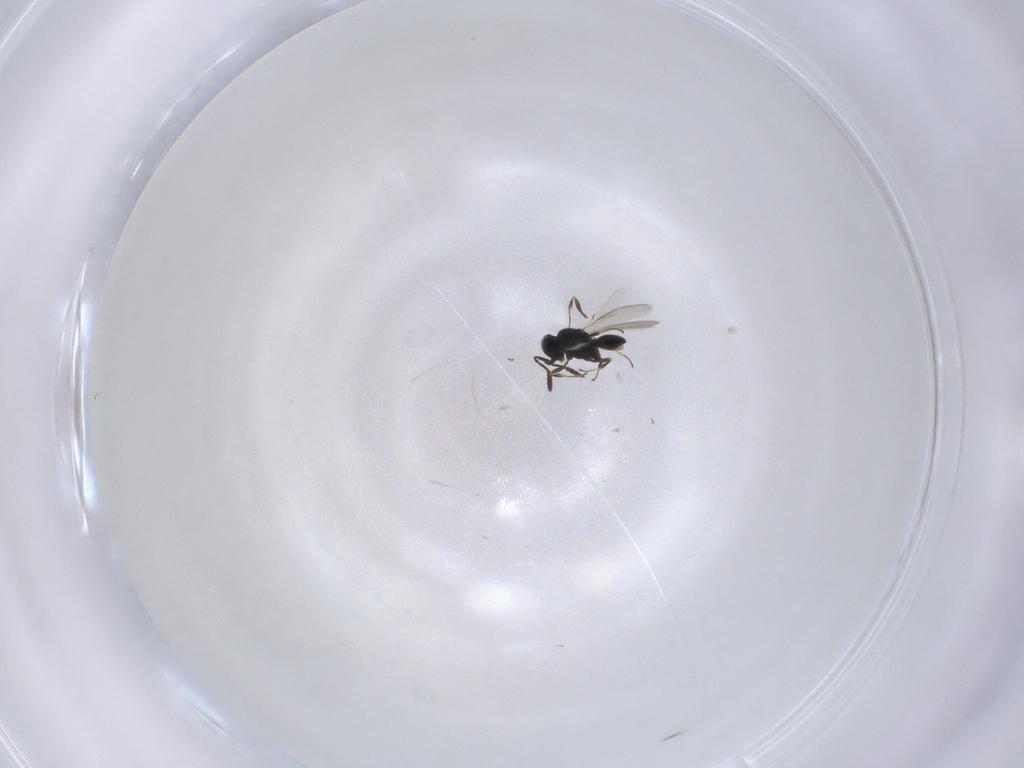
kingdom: Animalia
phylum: Arthropoda
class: Insecta
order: Hymenoptera
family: Scelionidae
